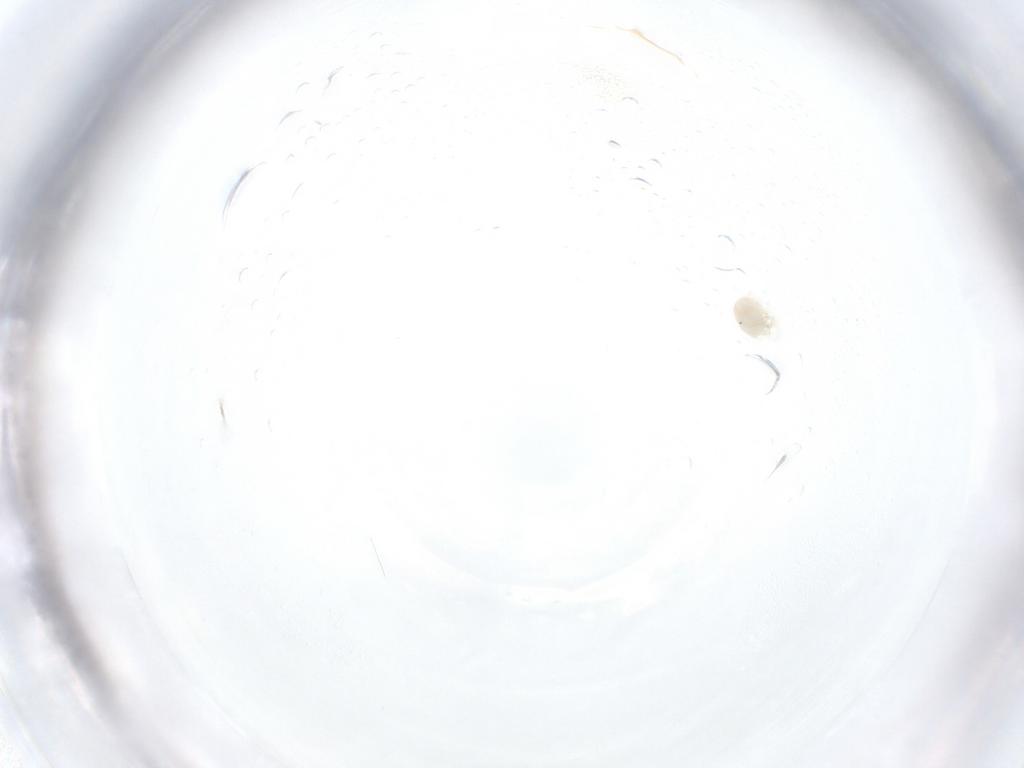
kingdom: Animalia
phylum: Arthropoda
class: Arachnida
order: Trombidiformes
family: Anystidae
